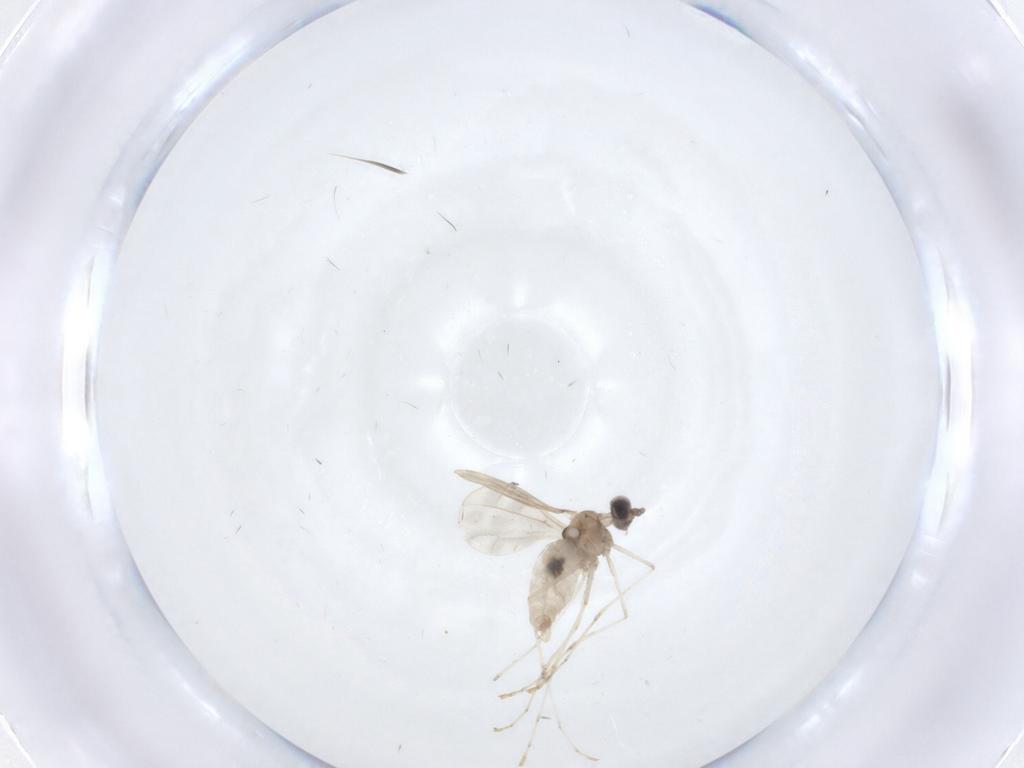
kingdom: Animalia
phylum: Arthropoda
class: Insecta
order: Diptera
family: Cecidomyiidae
